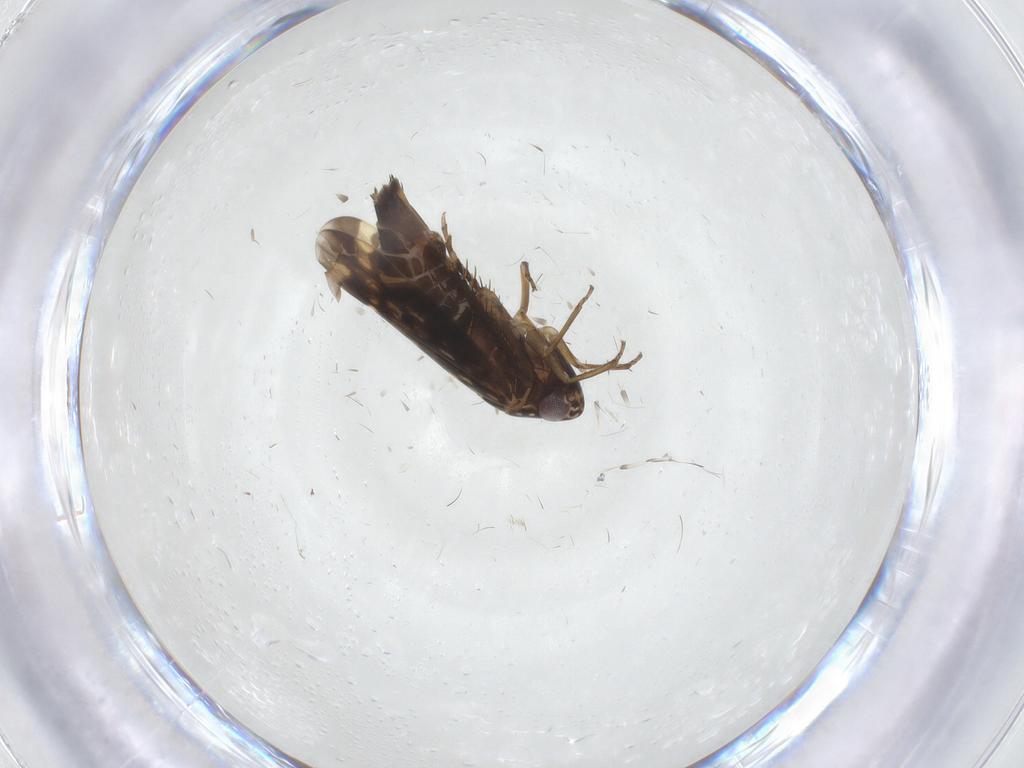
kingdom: Animalia
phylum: Arthropoda
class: Insecta
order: Hemiptera
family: Cicadellidae
